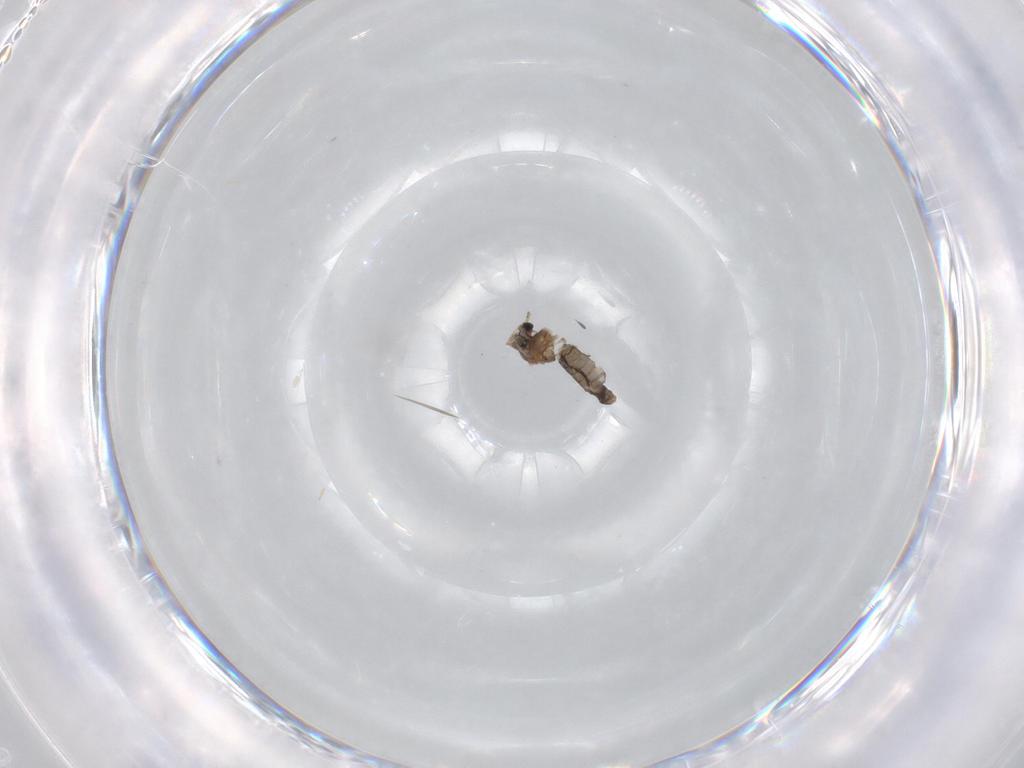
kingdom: Animalia
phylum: Arthropoda
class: Insecta
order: Diptera
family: Chironomidae
